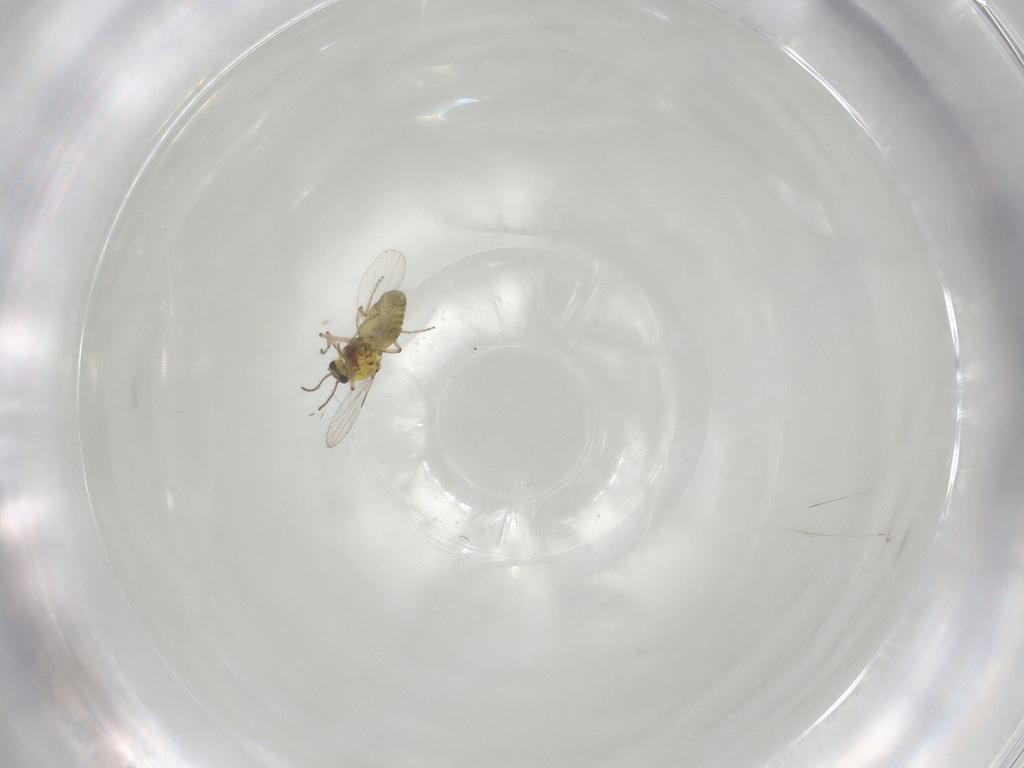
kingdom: Animalia
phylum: Arthropoda
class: Insecta
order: Diptera
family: Ceratopogonidae
